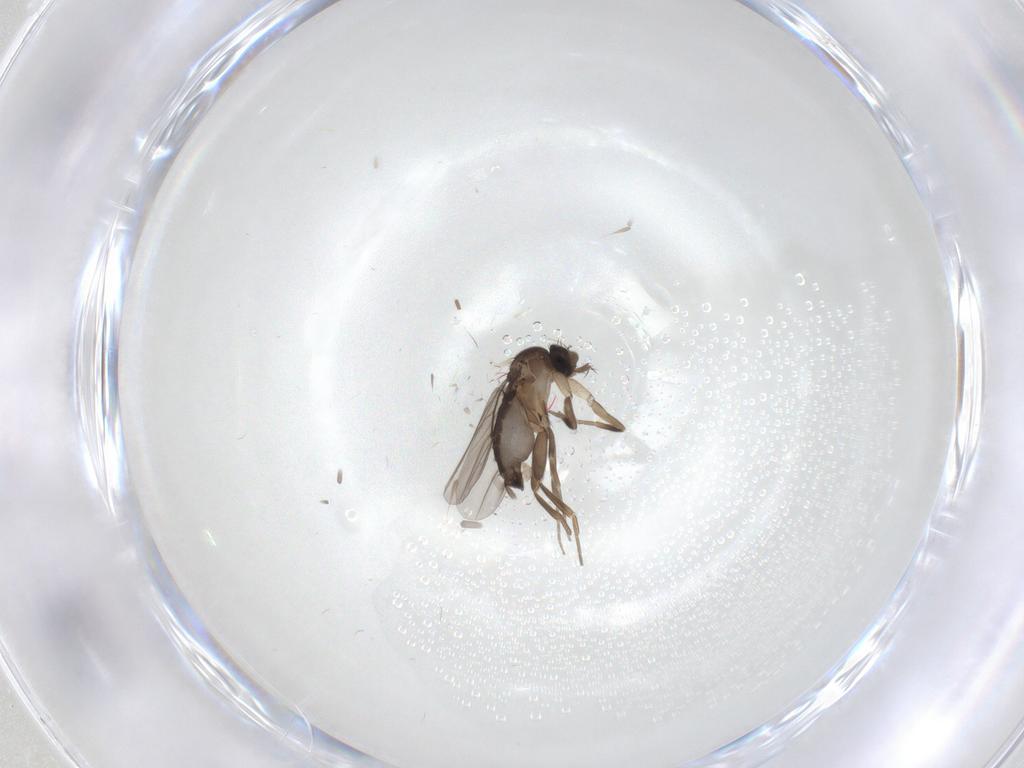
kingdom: Animalia
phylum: Arthropoda
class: Insecta
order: Diptera
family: Phoridae
